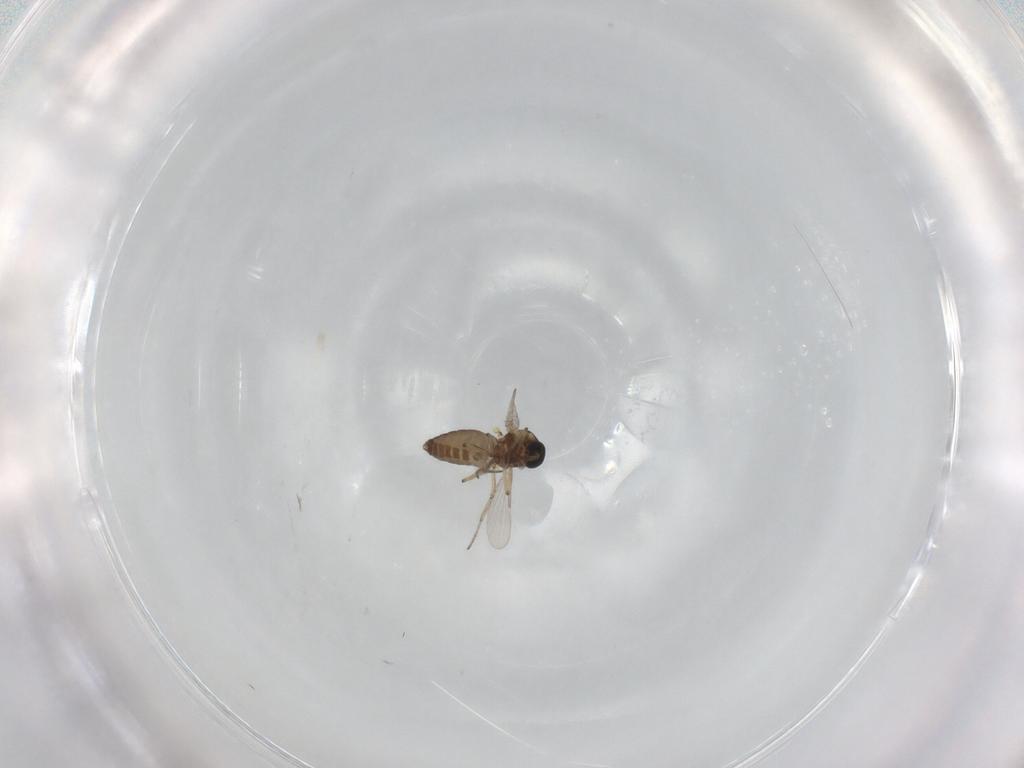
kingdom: Animalia
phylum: Arthropoda
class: Insecta
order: Diptera
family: Ceratopogonidae
